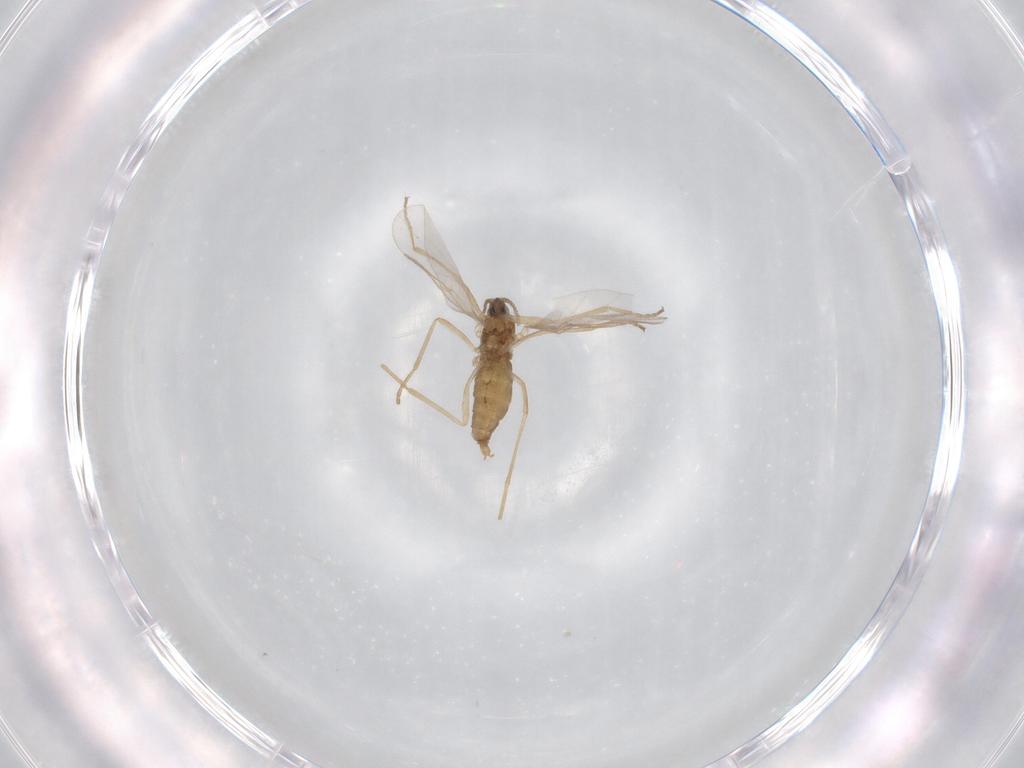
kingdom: Animalia
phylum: Arthropoda
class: Insecta
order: Diptera
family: Cecidomyiidae
